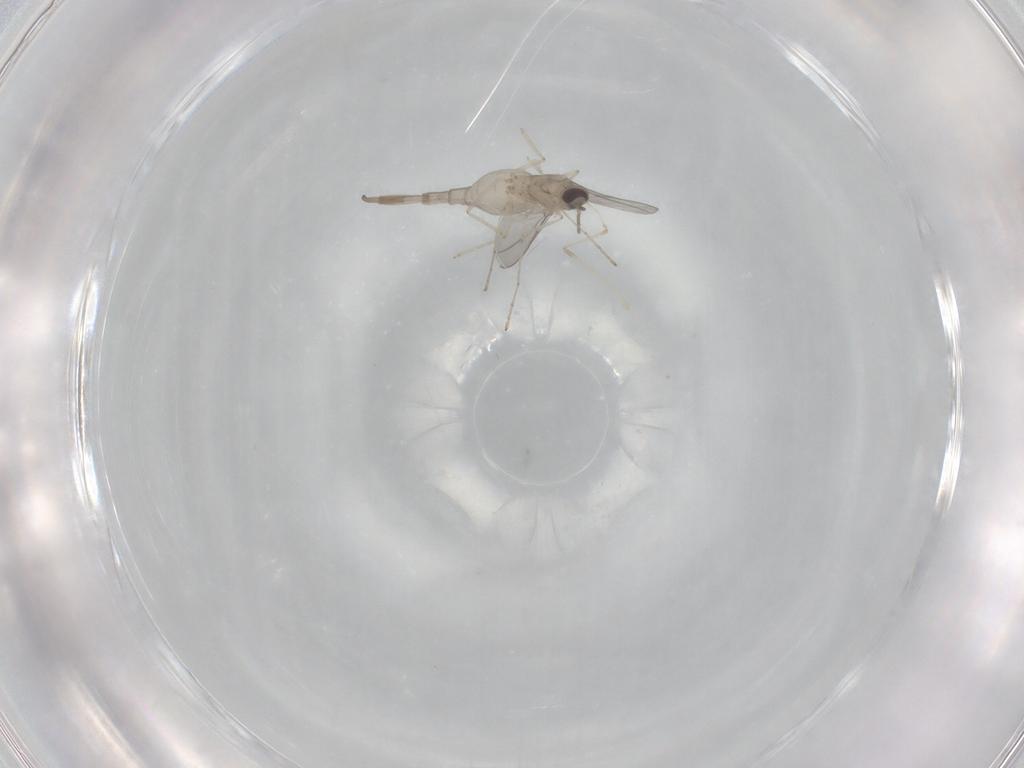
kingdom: Animalia
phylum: Arthropoda
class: Insecta
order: Diptera
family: Cecidomyiidae
